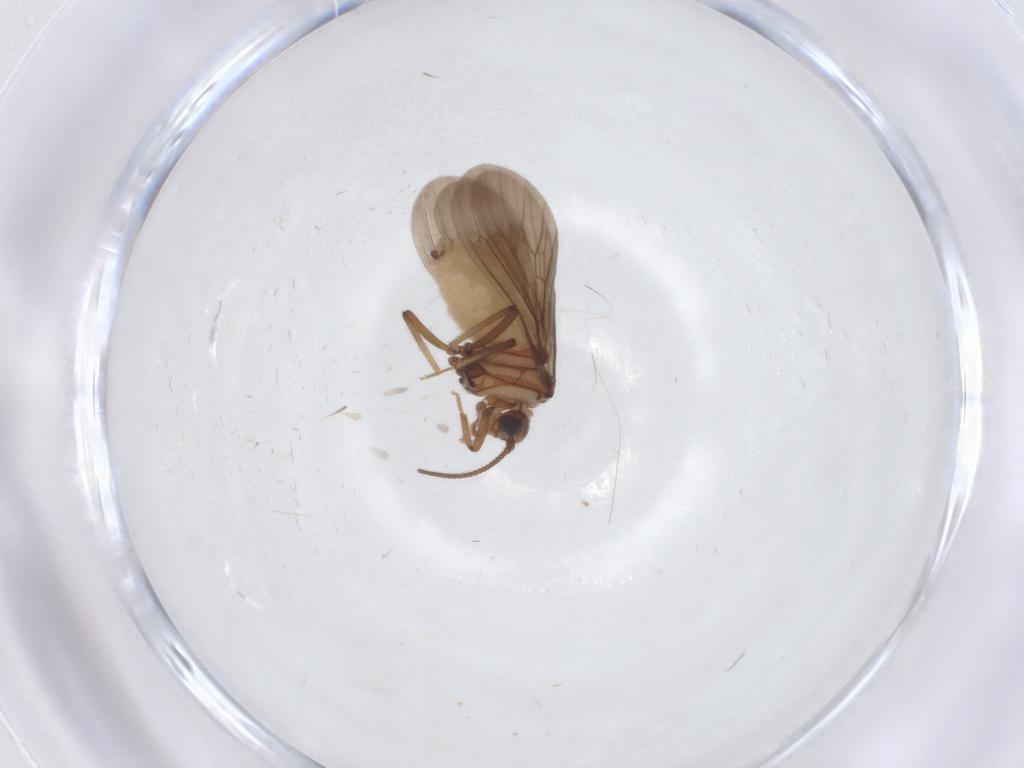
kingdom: Animalia
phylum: Arthropoda
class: Insecta
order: Neuroptera
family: Coniopterygidae
